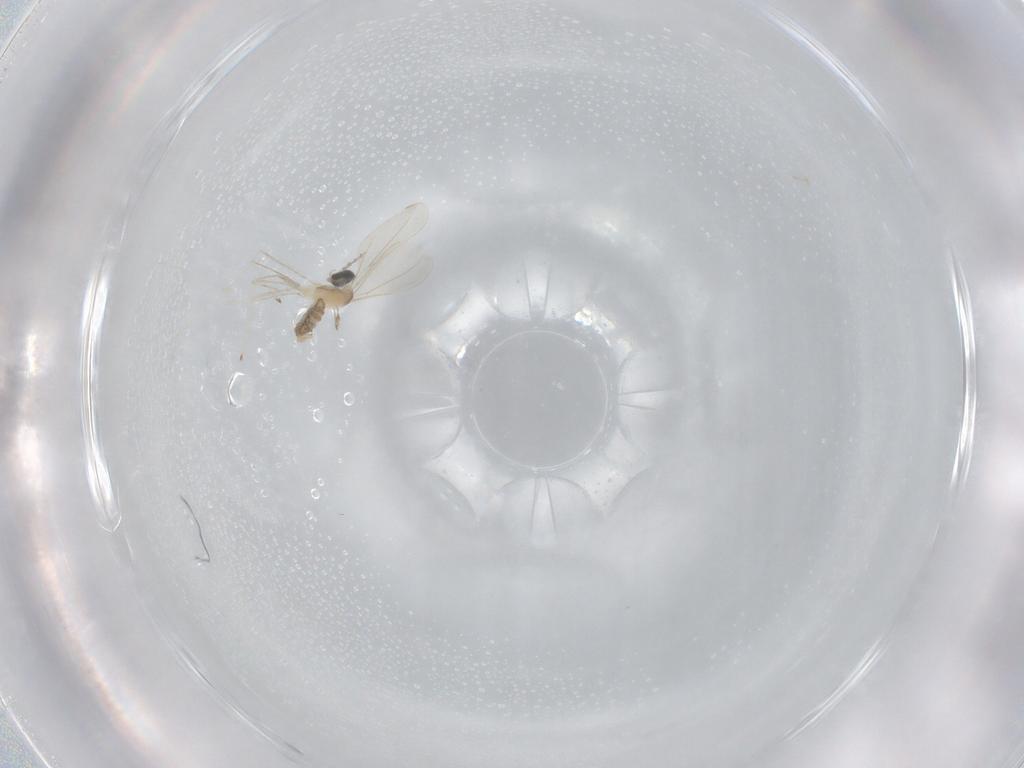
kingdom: Animalia
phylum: Arthropoda
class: Insecta
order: Diptera
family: Cecidomyiidae
